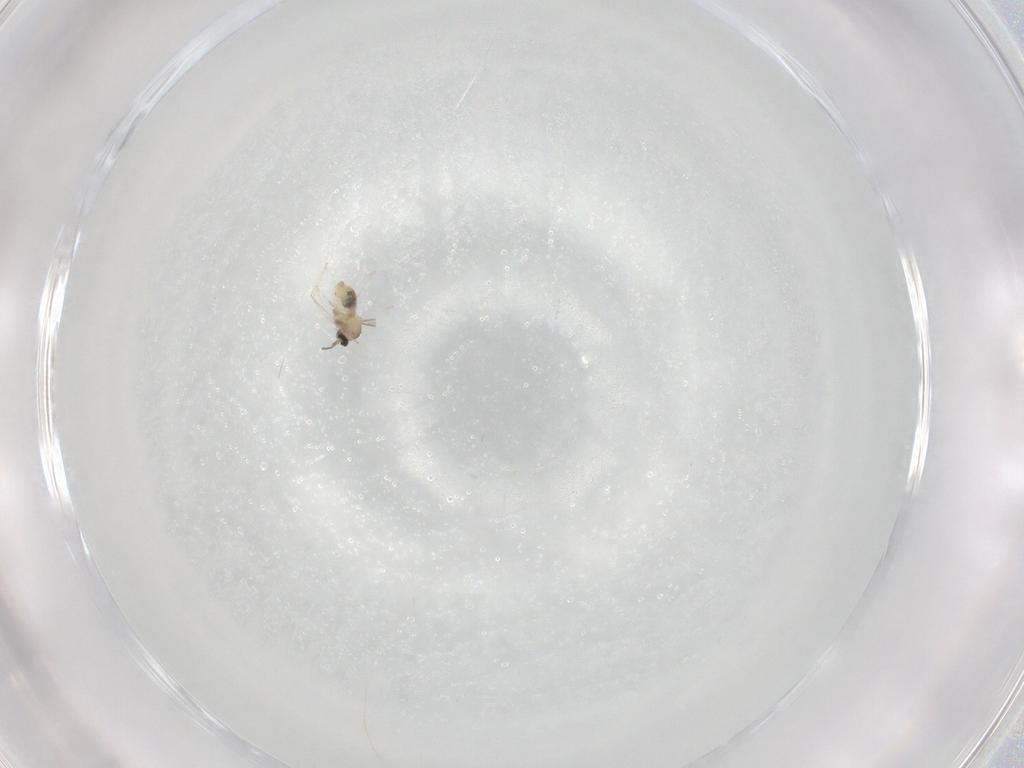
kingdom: Animalia
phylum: Arthropoda
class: Insecta
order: Diptera
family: Cecidomyiidae
